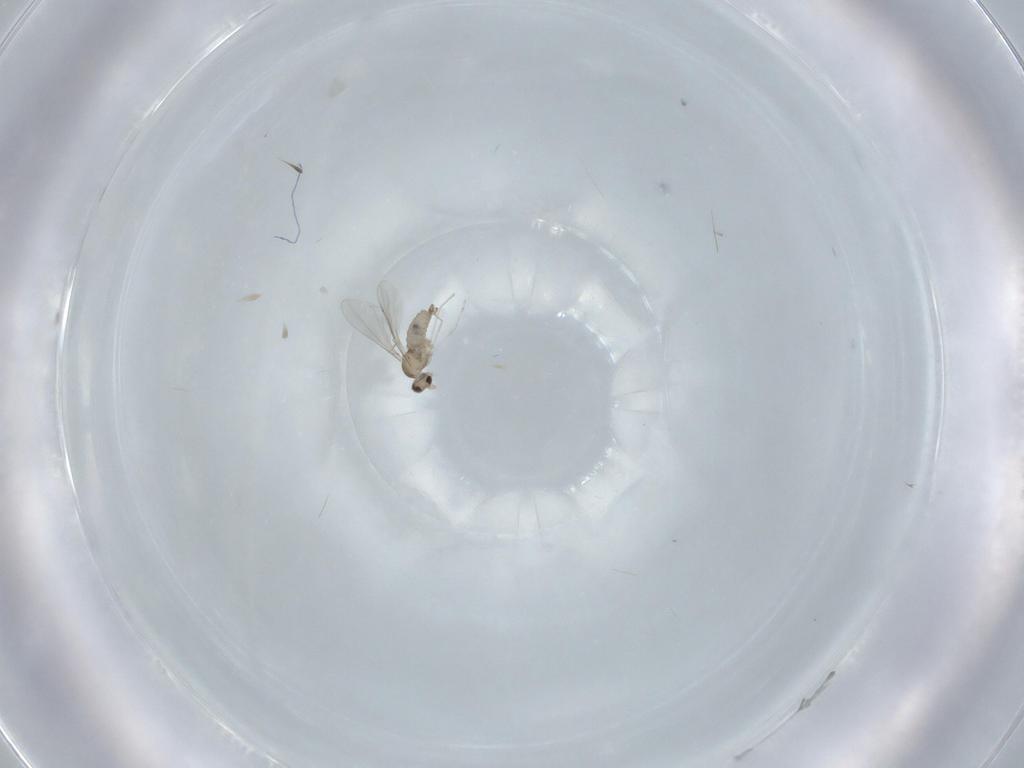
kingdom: Animalia
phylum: Arthropoda
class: Insecta
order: Diptera
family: Cecidomyiidae
